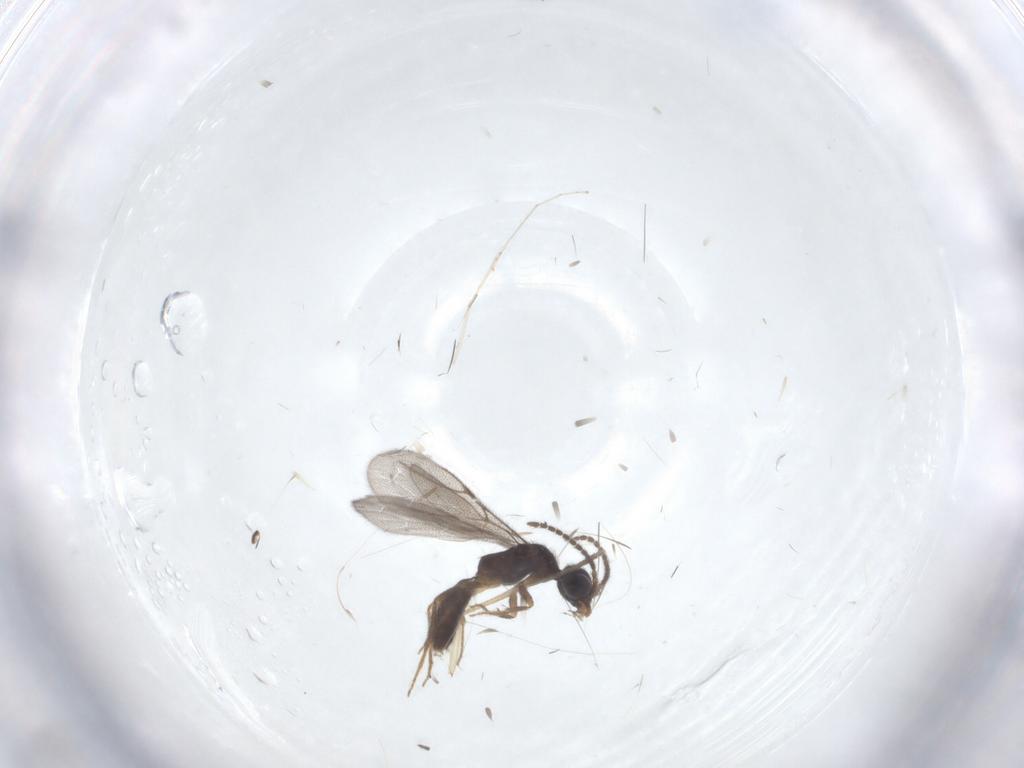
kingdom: Animalia
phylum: Arthropoda
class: Insecta
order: Hymenoptera
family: Bethylidae
